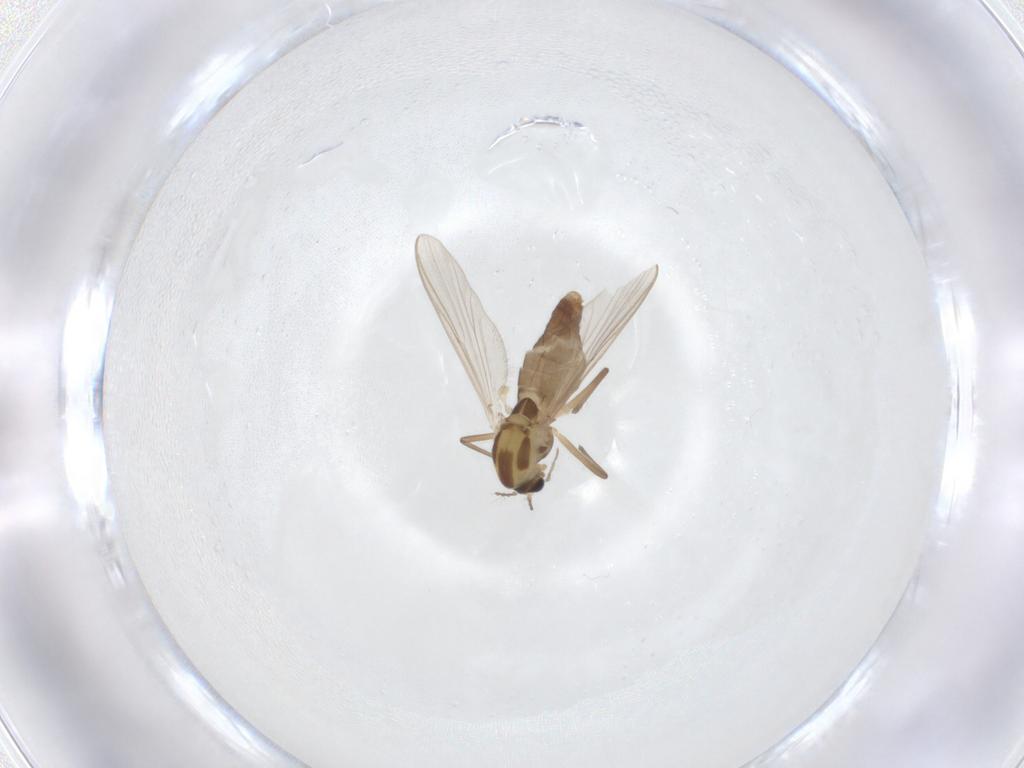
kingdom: Animalia
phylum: Arthropoda
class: Insecta
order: Diptera
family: Chironomidae
